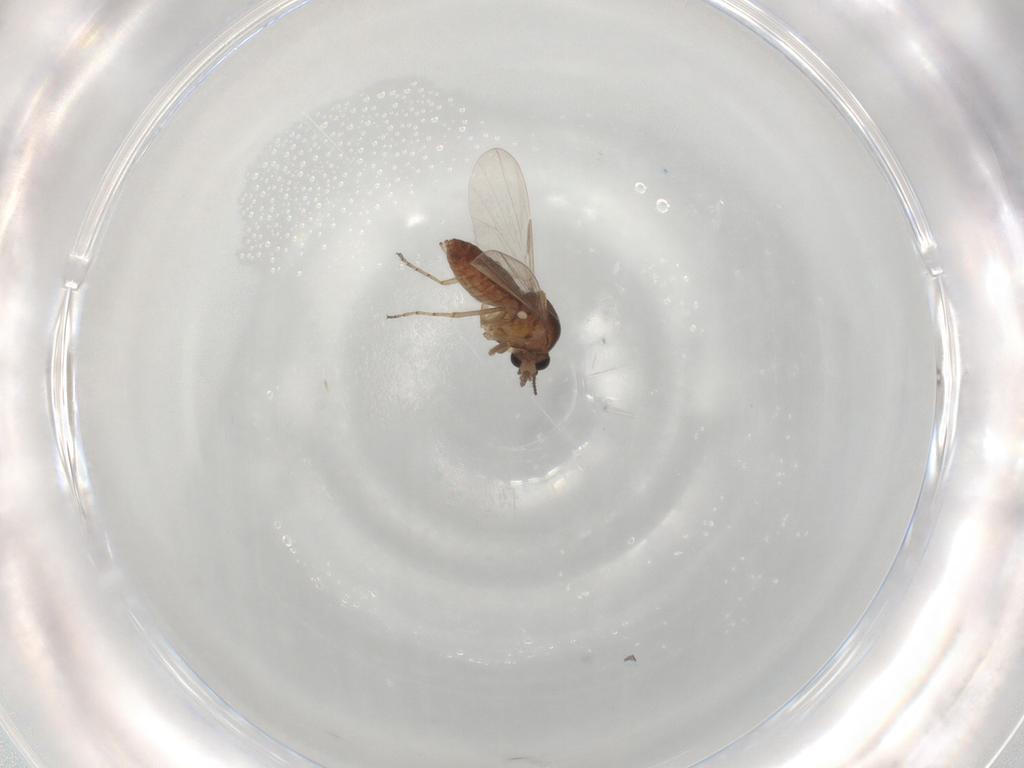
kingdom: Animalia
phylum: Arthropoda
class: Insecta
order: Diptera
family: Ceratopogonidae
